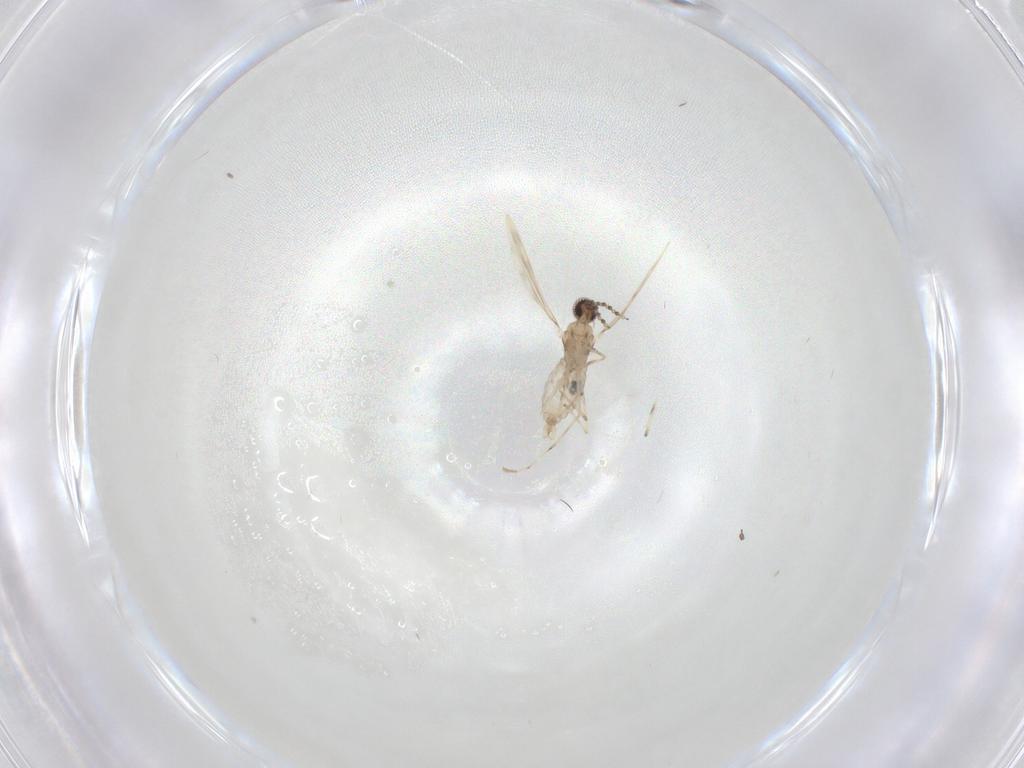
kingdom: Animalia
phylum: Arthropoda
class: Insecta
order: Diptera
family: Cecidomyiidae
